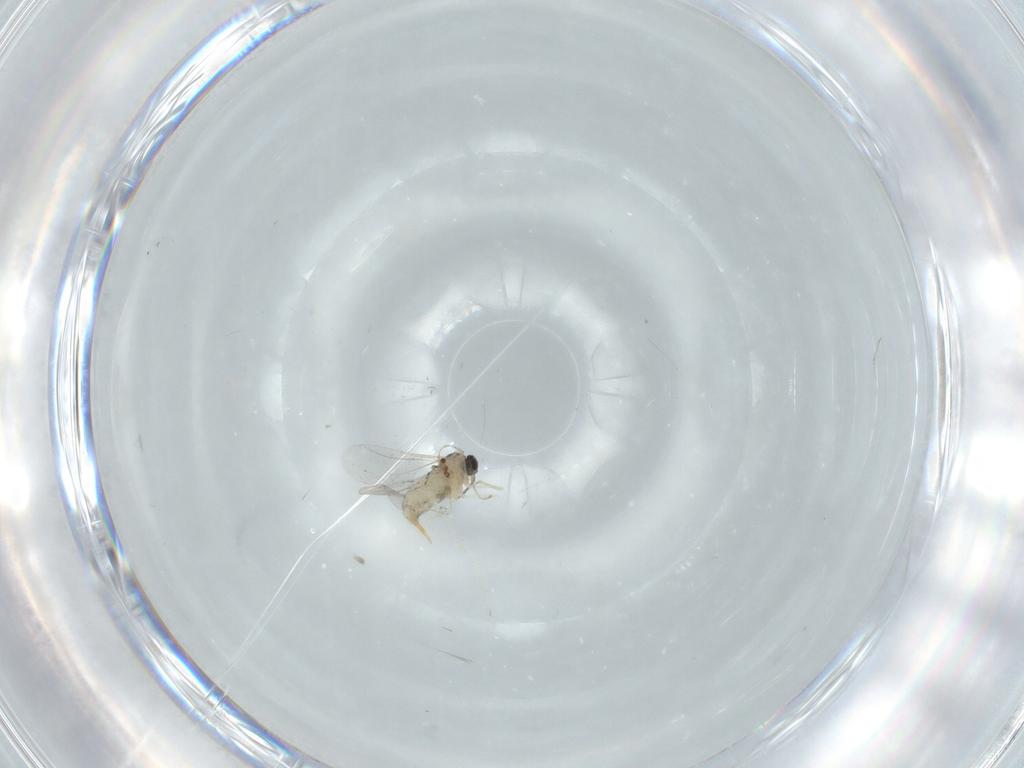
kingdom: Animalia
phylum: Arthropoda
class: Insecta
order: Diptera
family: Cecidomyiidae
